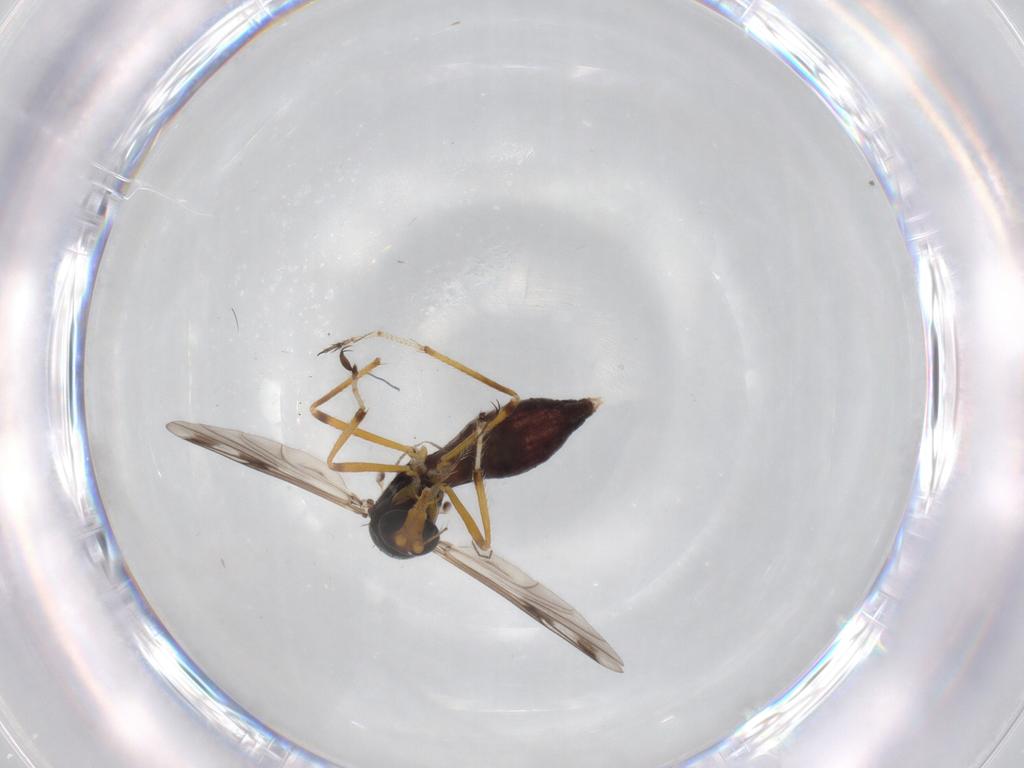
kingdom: Animalia
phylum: Arthropoda
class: Insecta
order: Diptera
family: Ceratopogonidae
